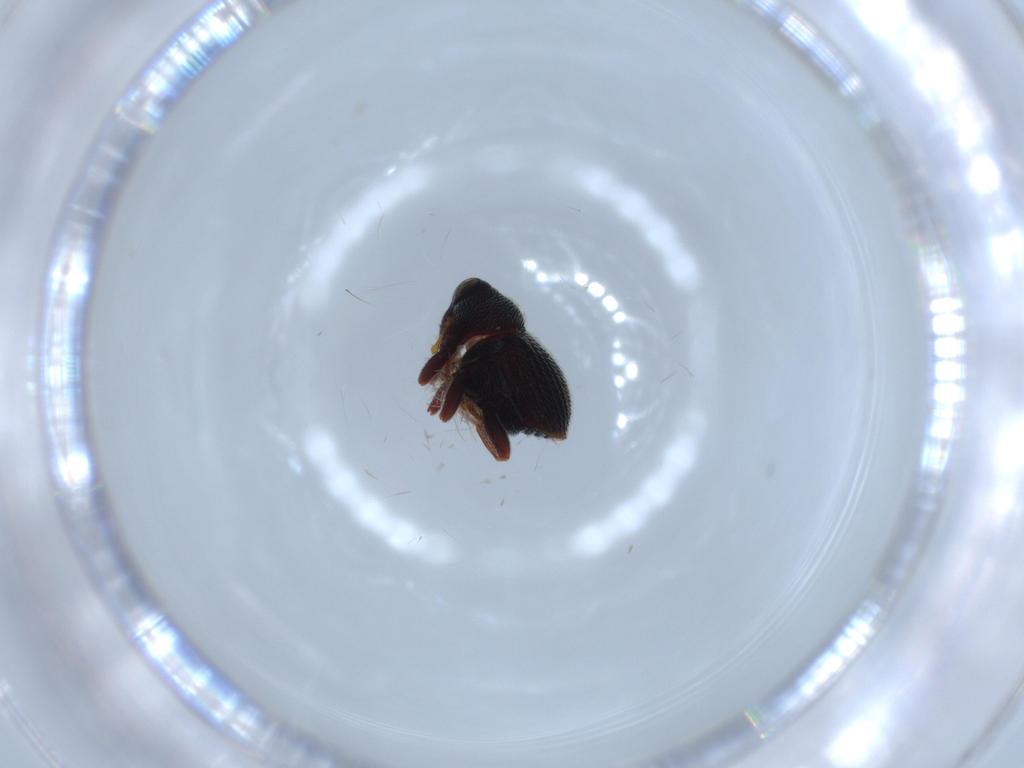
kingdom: Animalia
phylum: Arthropoda
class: Insecta
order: Coleoptera
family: Curculionidae
